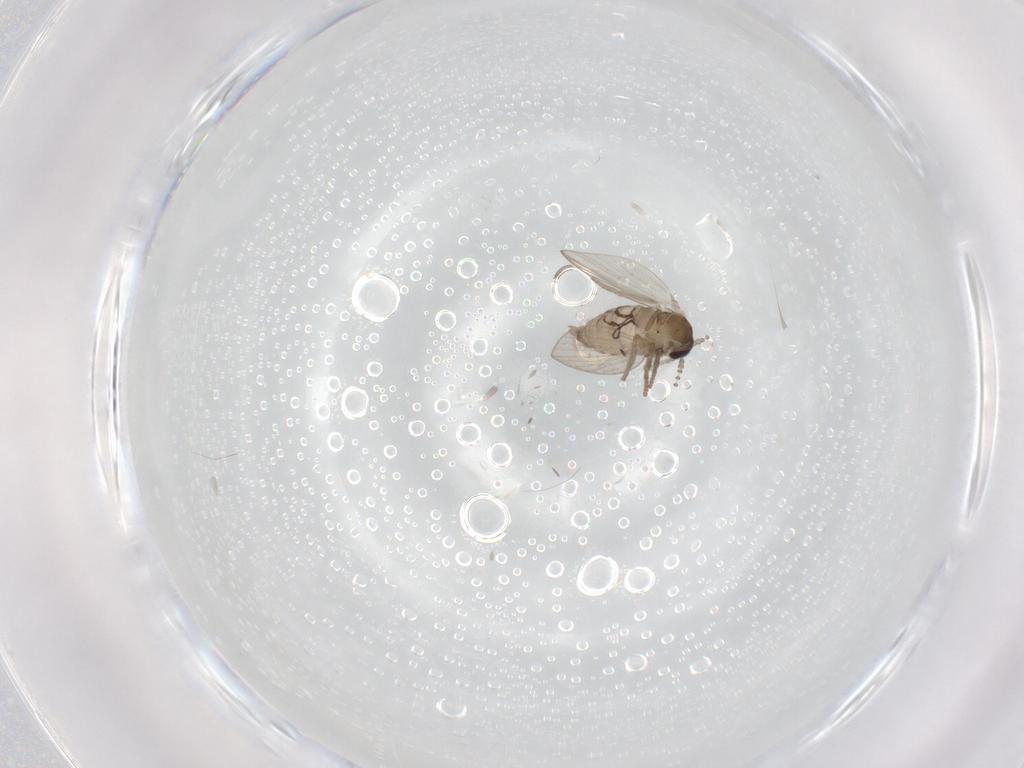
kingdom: Animalia
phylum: Arthropoda
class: Insecta
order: Diptera
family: Psychodidae
